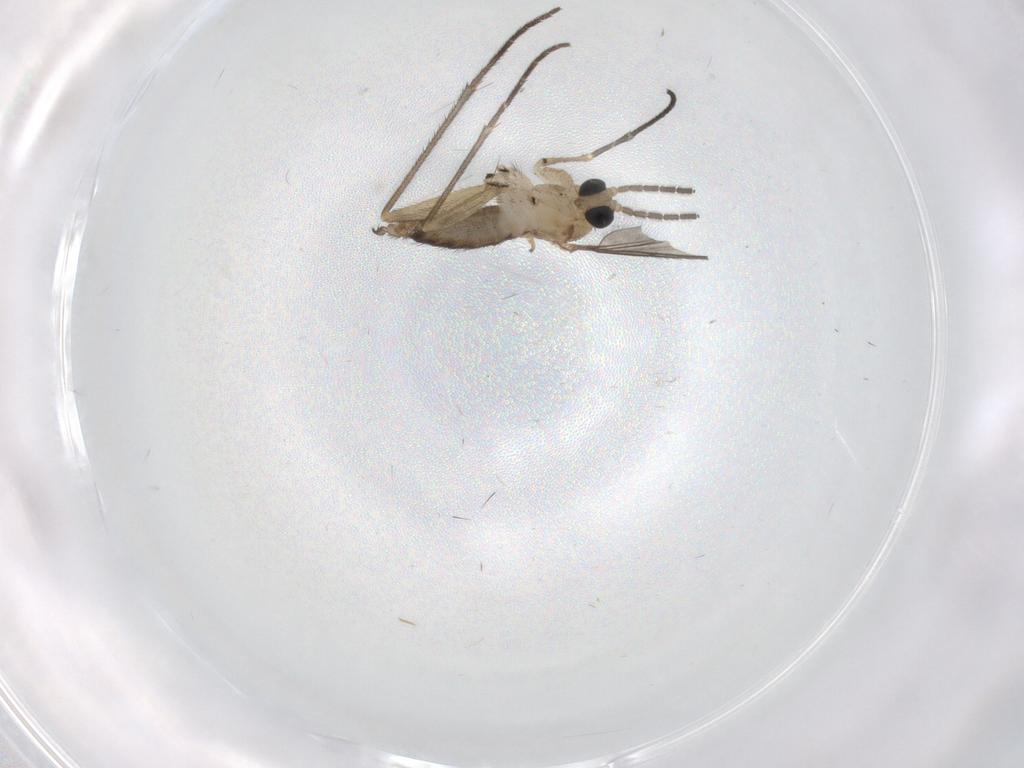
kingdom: Animalia
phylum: Arthropoda
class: Insecta
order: Diptera
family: Sciaridae
